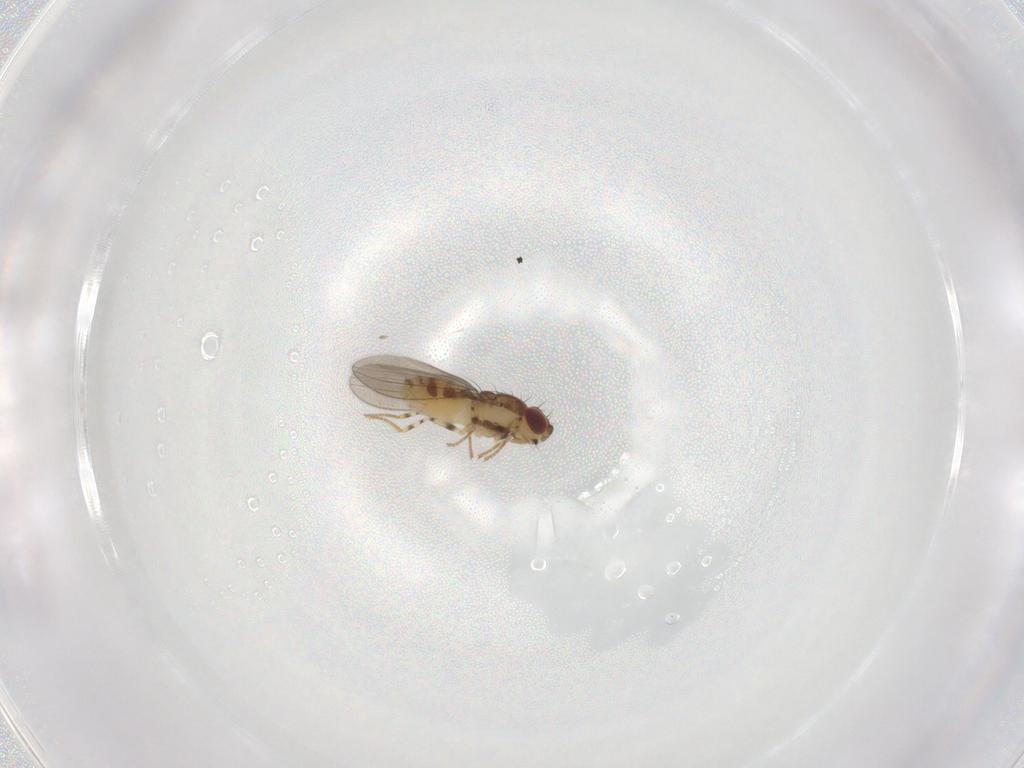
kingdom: Animalia
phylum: Arthropoda
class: Insecta
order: Diptera
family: Asteiidae
